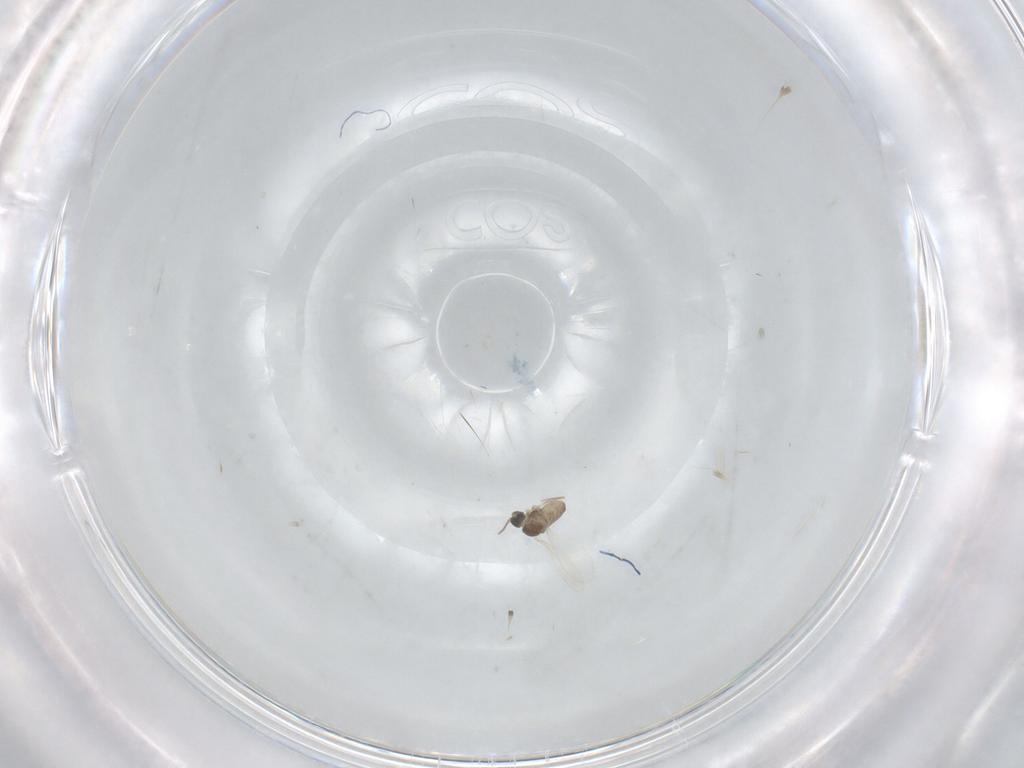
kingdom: Animalia
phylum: Arthropoda
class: Insecta
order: Diptera
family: Cecidomyiidae
